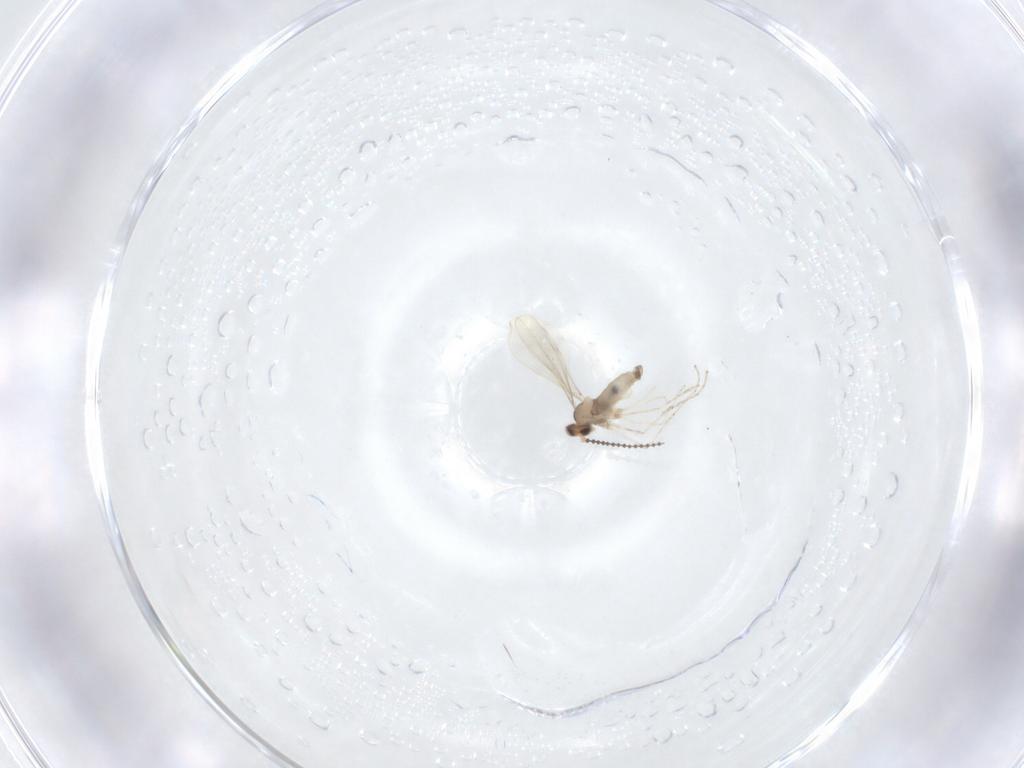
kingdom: Animalia
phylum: Arthropoda
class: Insecta
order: Diptera
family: Cecidomyiidae
